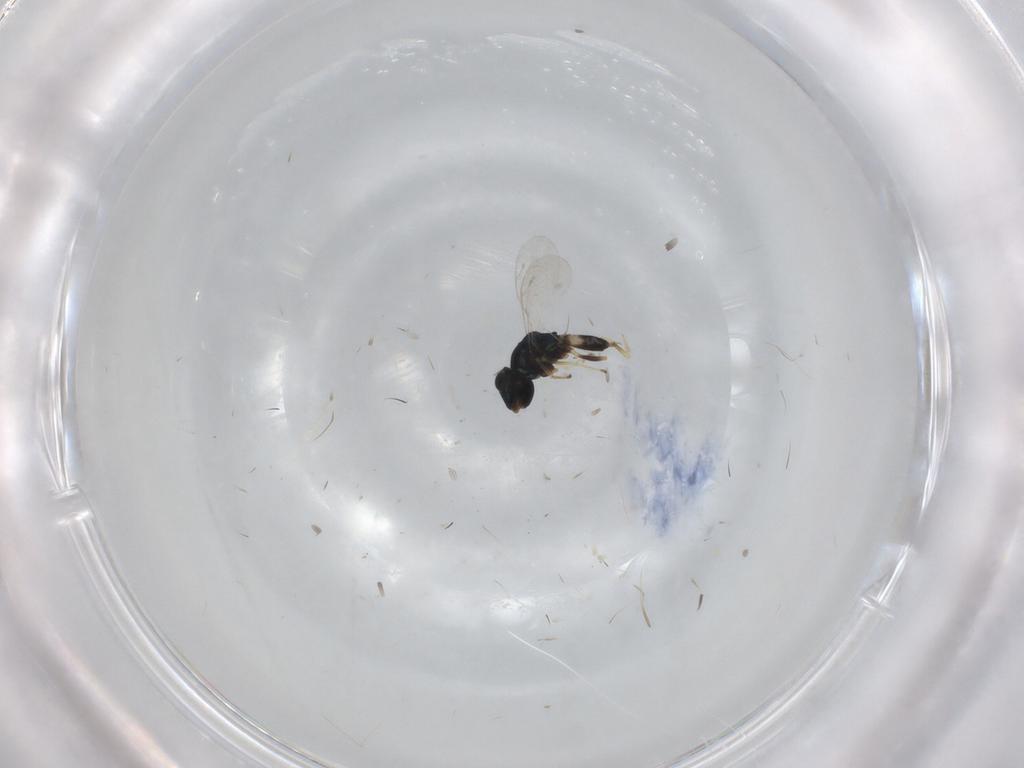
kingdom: Animalia
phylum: Arthropoda
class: Insecta
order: Hymenoptera
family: Pteromalidae
